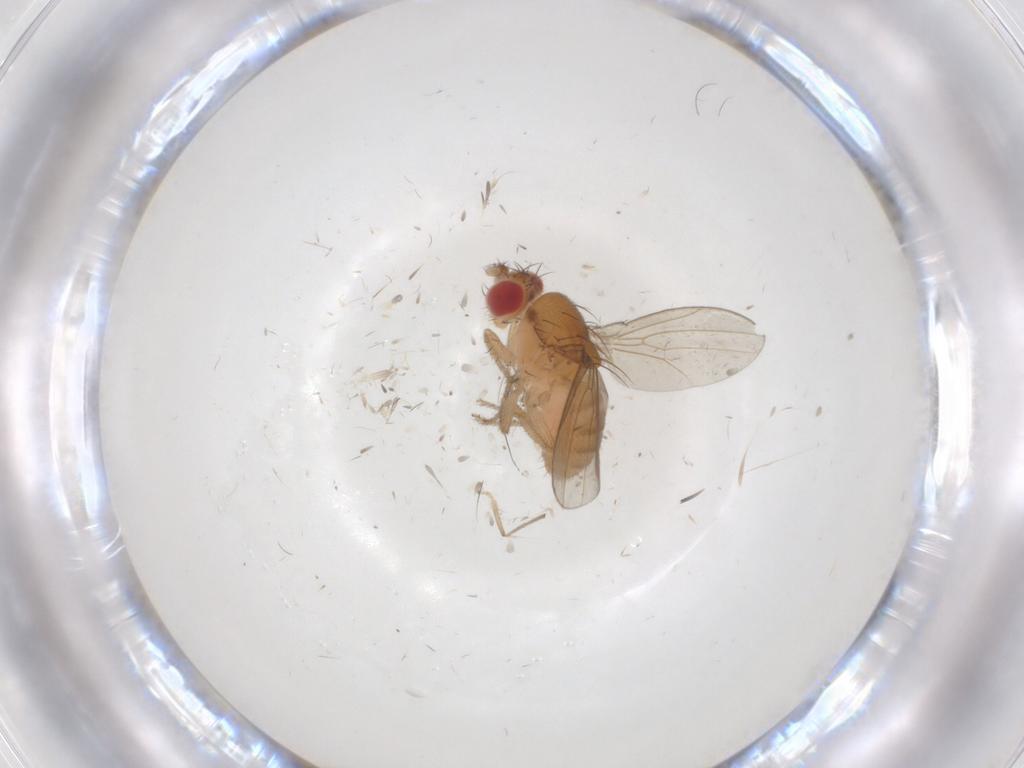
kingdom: Animalia
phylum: Arthropoda
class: Insecta
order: Diptera
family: Drosophilidae
